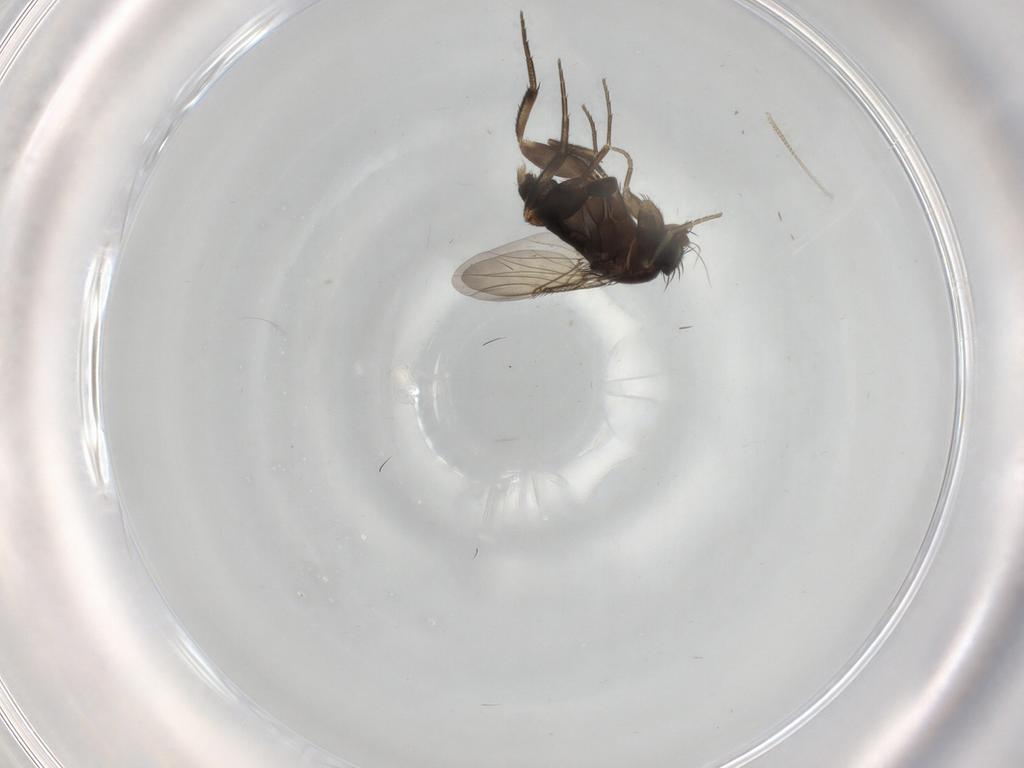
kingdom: Animalia
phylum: Arthropoda
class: Insecta
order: Diptera
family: Phoridae
